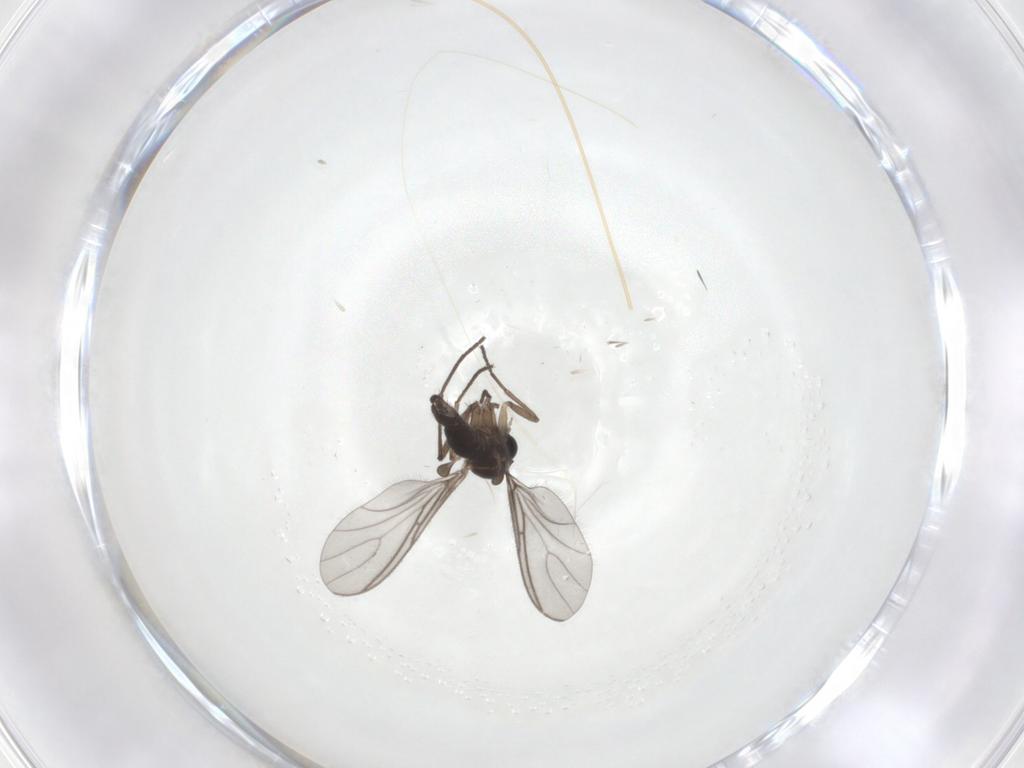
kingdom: Animalia
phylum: Arthropoda
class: Insecta
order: Diptera
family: Sciaridae
